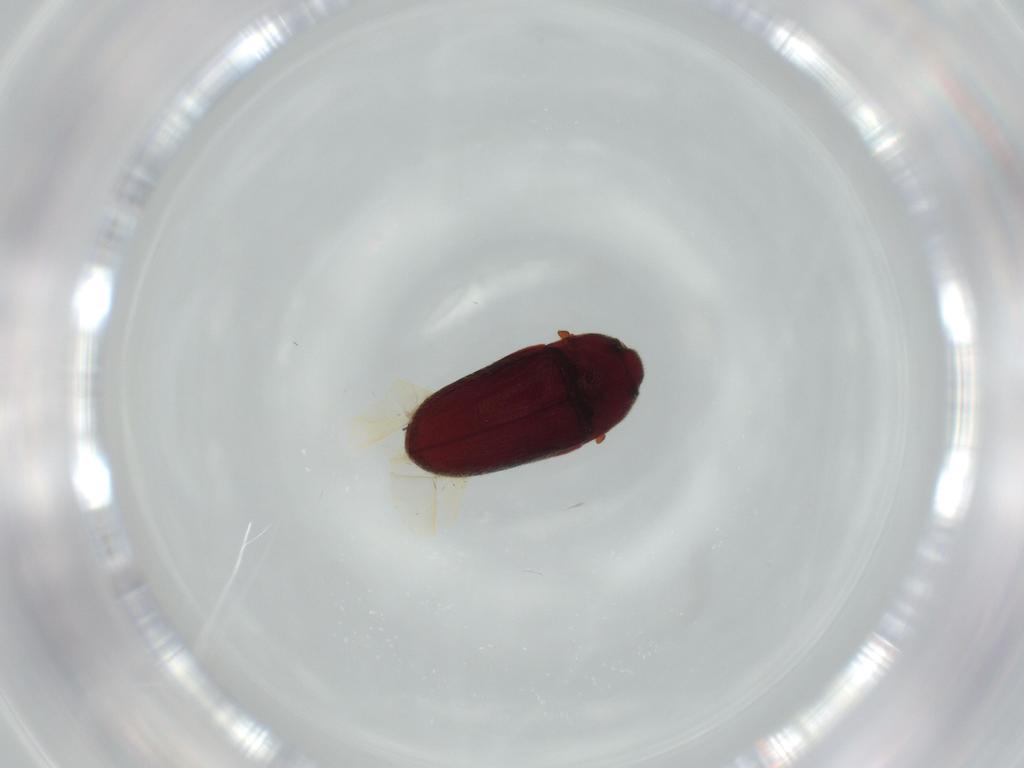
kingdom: Animalia
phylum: Arthropoda
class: Insecta
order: Coleoptera
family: Throscidae
